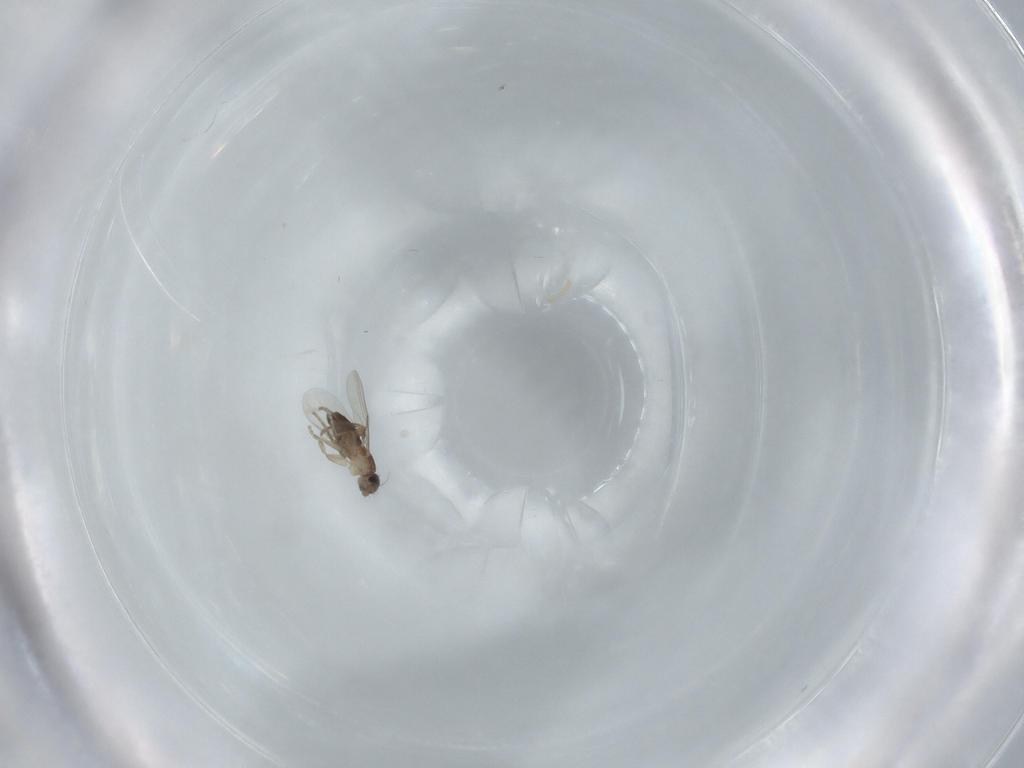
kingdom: Animalia
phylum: Arthropoda
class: Insecta
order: Diptera
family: Phoridae
